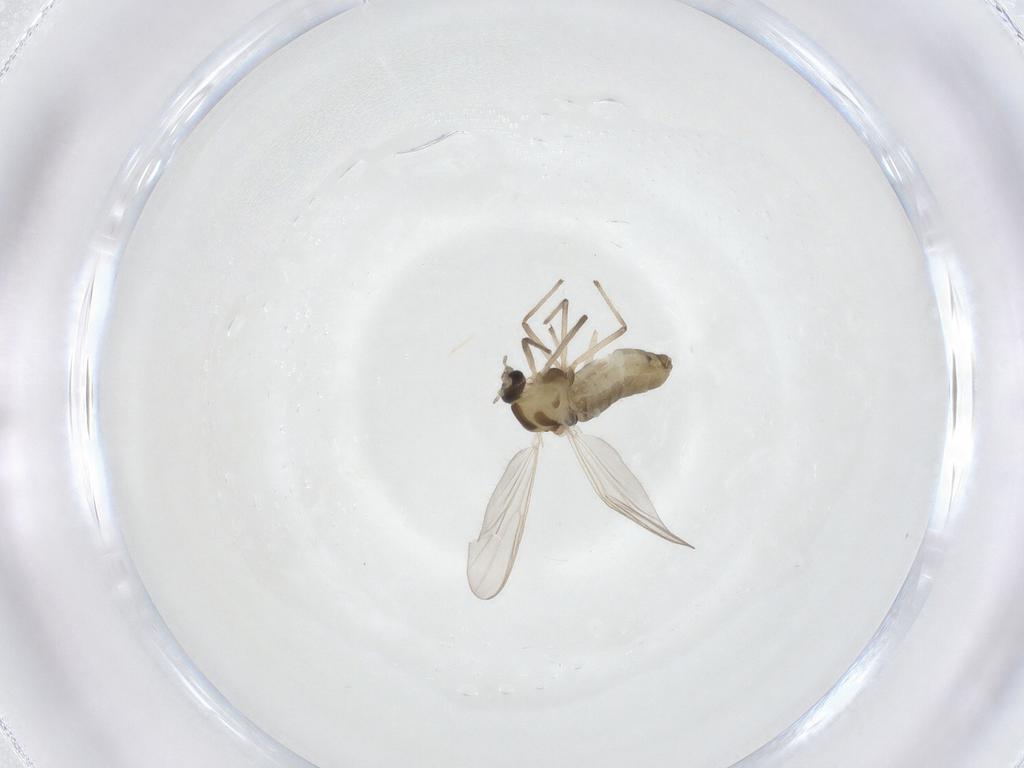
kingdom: Animalia
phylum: Arthropoda
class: Insecta
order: Diptera
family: Chironomidae
